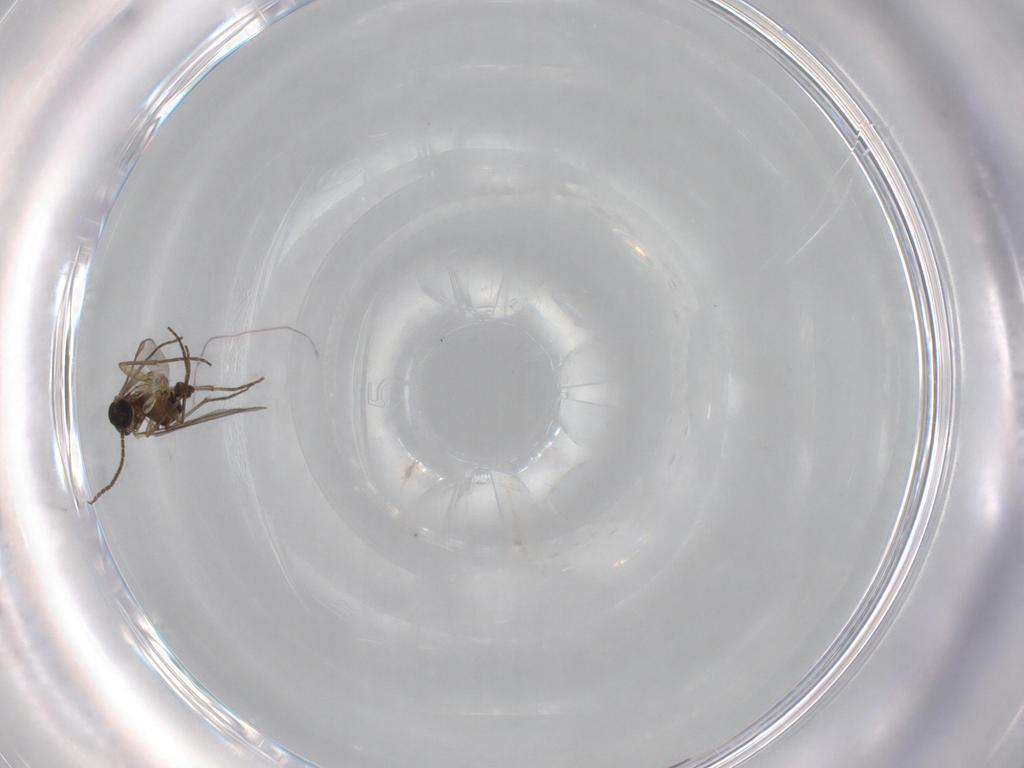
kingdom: Animalia
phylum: Arthropoda
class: Insecta
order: Diptera
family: Sciaridae
